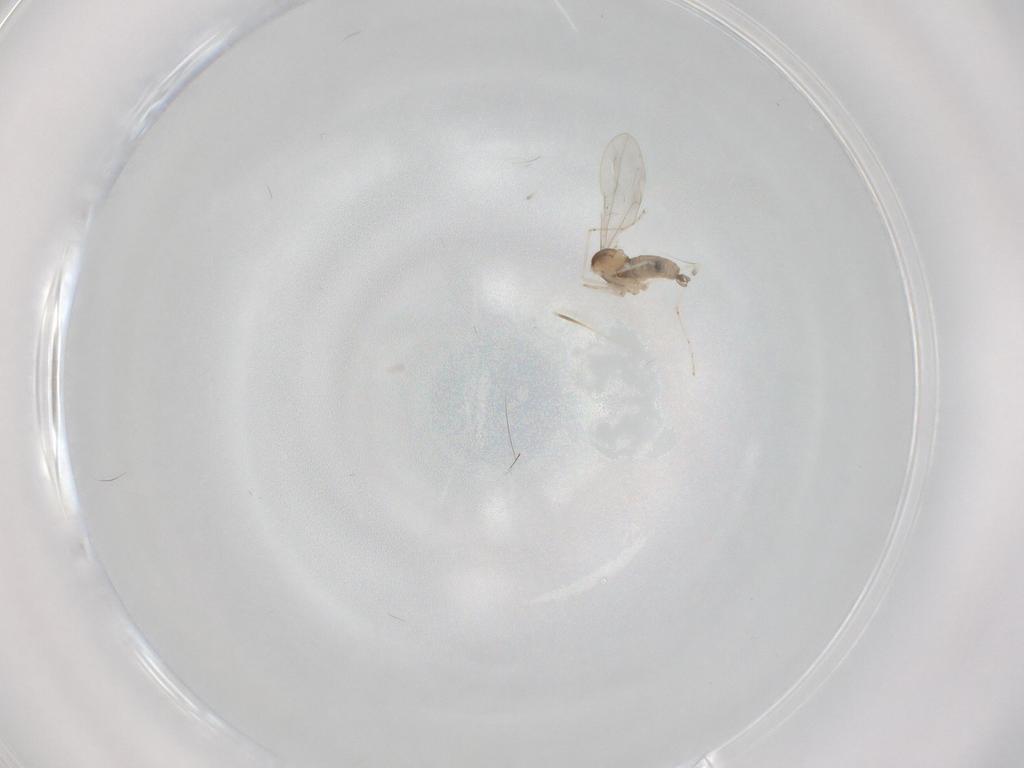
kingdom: Animalia
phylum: Arthropoda
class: Insecta
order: Diptera
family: Cecidomyiidae
